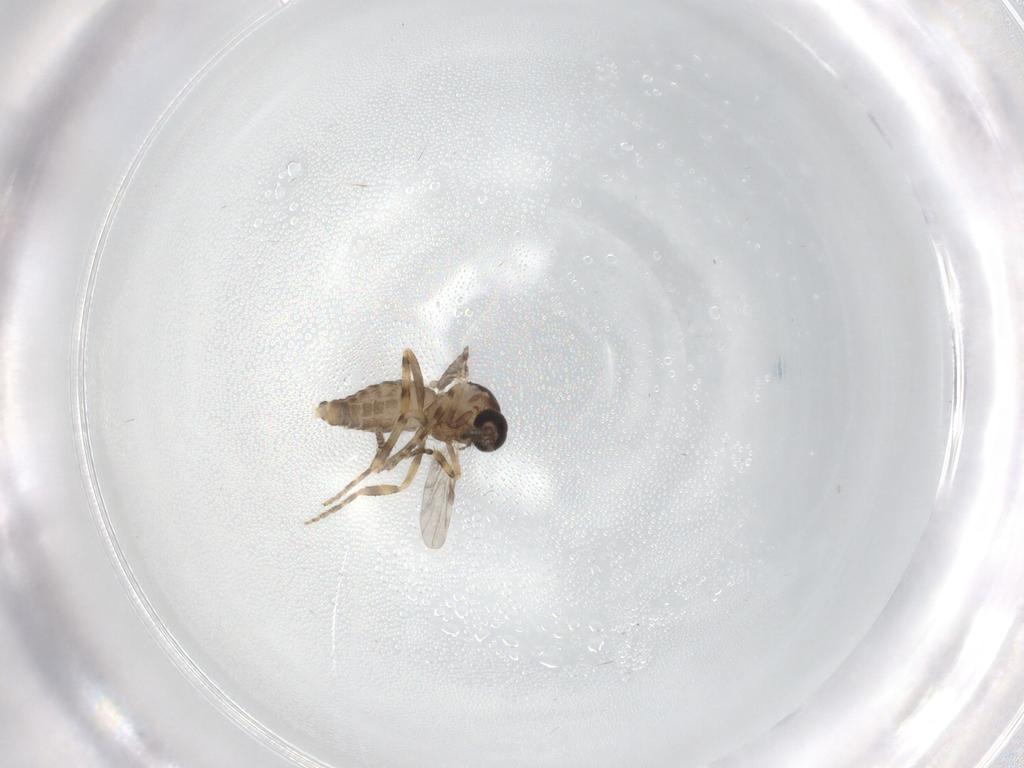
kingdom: Animalia
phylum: Arthropoda
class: Insecta
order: Diptera
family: Ceratopogonidae
